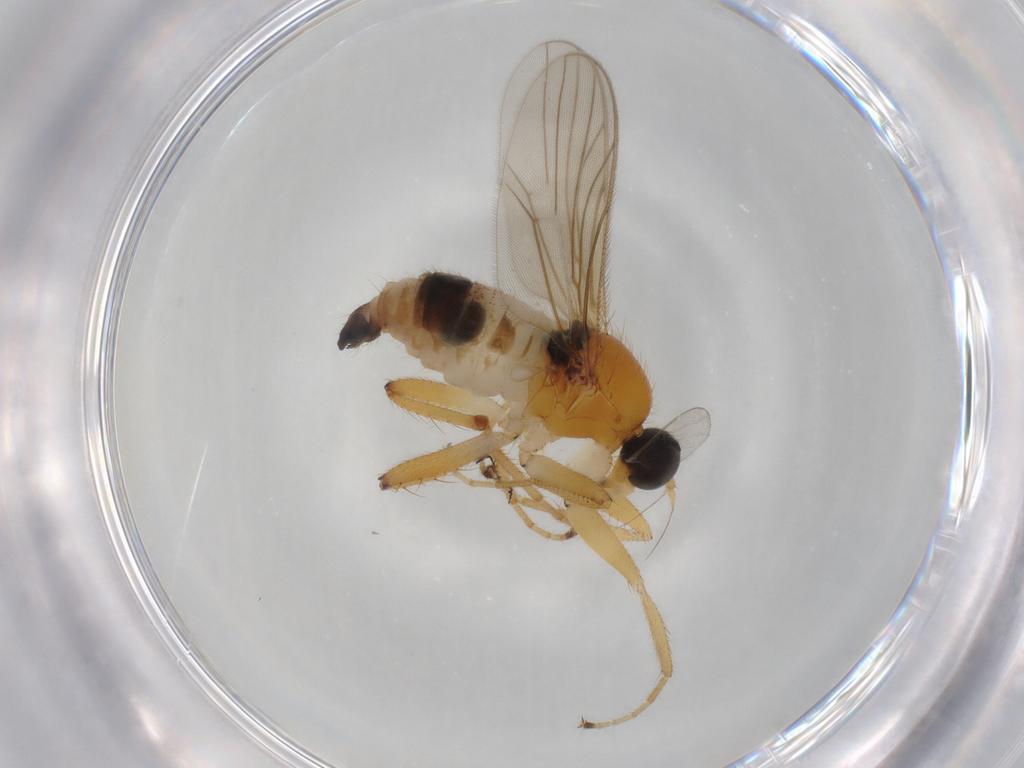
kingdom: Animalia
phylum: Arthropoda
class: Insecta
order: Diptera
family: Hybotidae
